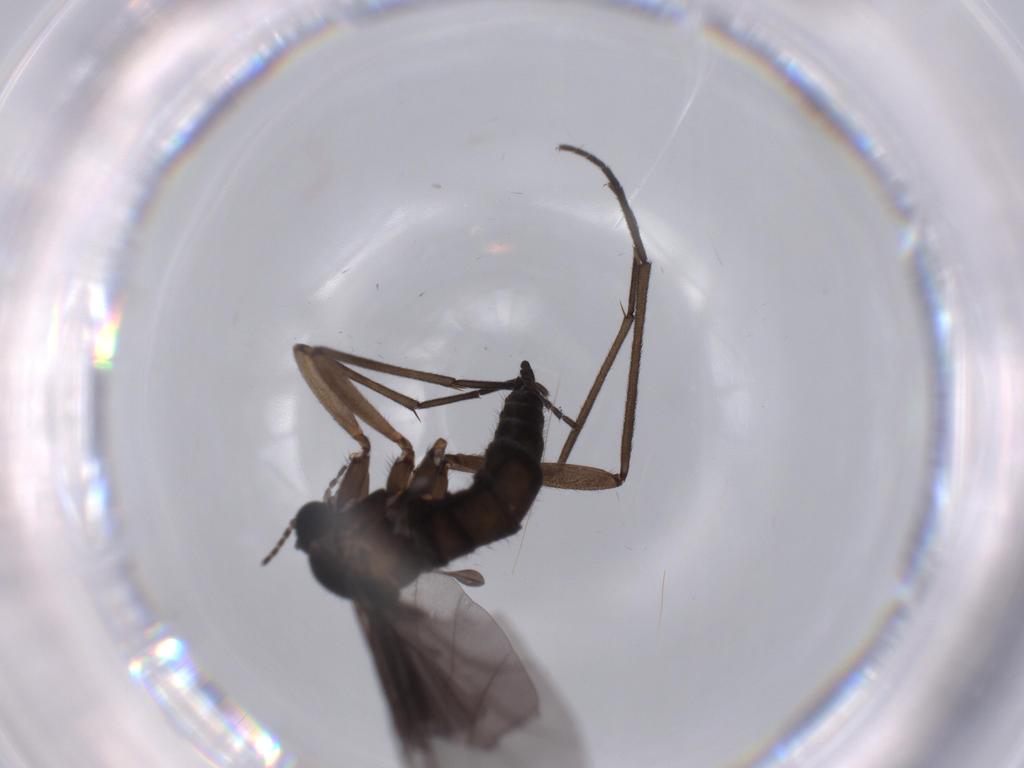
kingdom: Animalia
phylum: Arthropoda
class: Insecta
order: Diptera
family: Sciaridae
